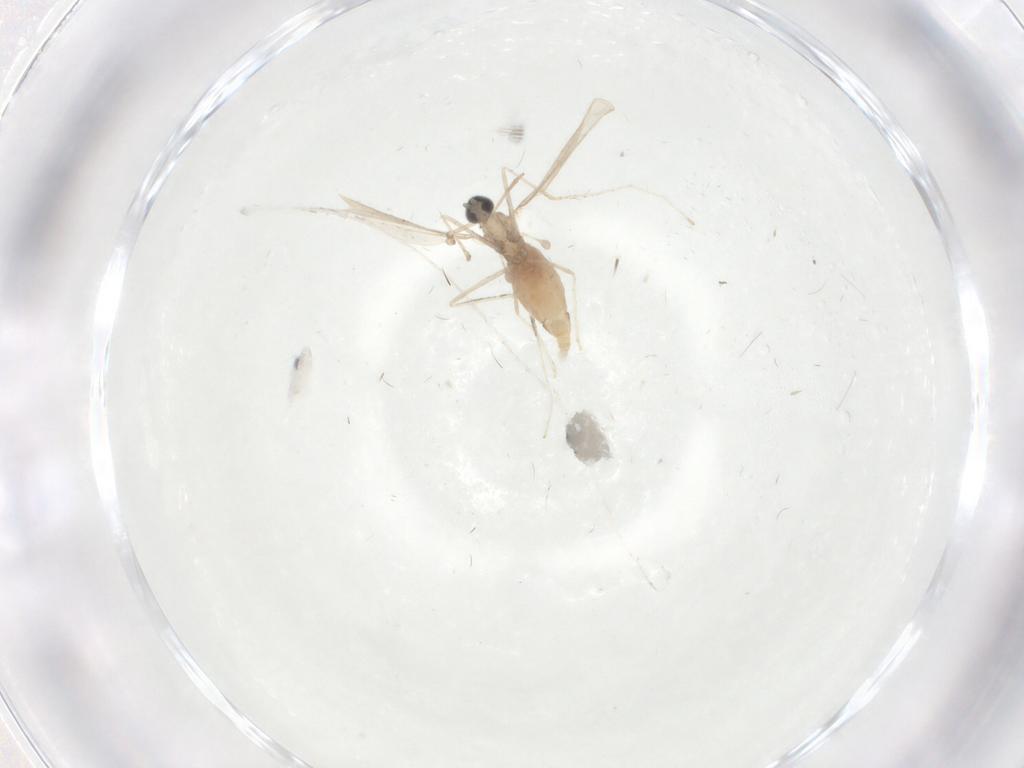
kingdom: Animalia
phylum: Arthropoda
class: Insecta
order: Diptera
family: Cecidomyiidae
